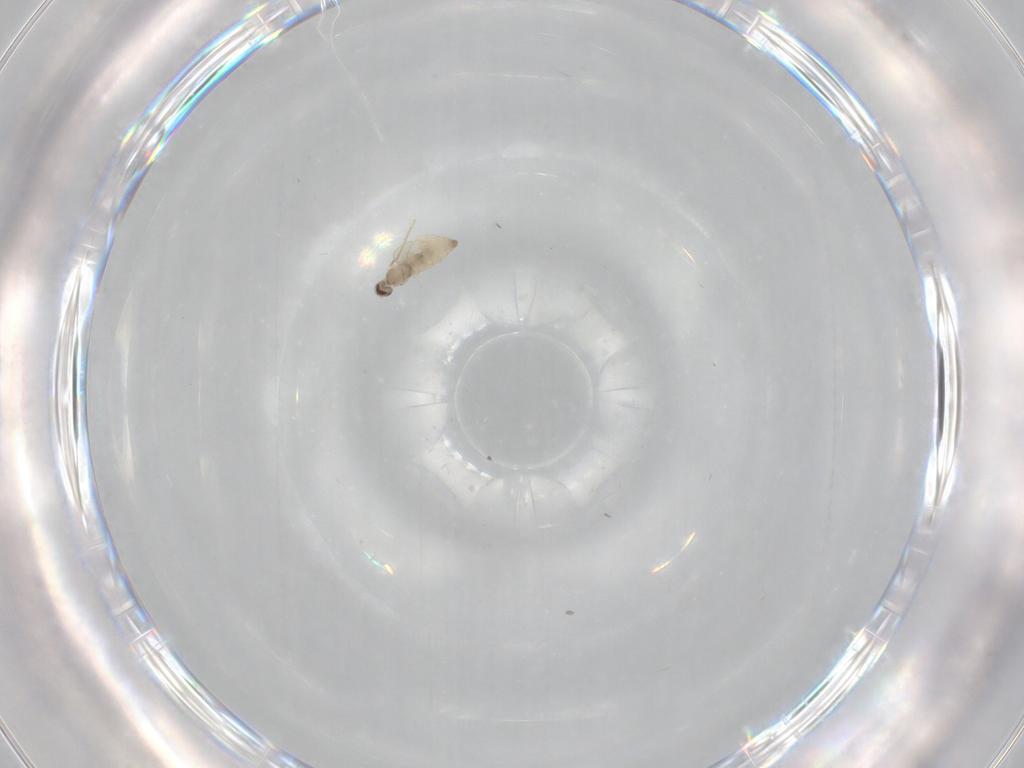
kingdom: Animalia
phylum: Arthropoda
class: Insecta
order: Diptera
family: Cecidomyiidae
